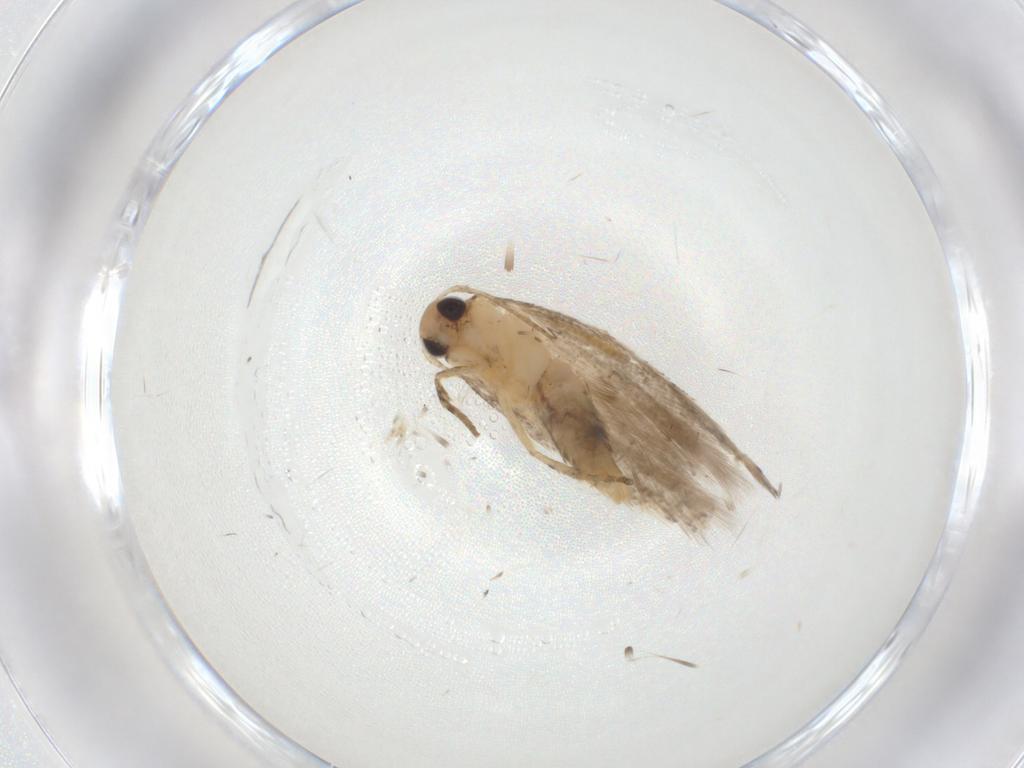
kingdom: Animalia
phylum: Arthropoda
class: Insecta
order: Lepidoptera
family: Gelechiidae
